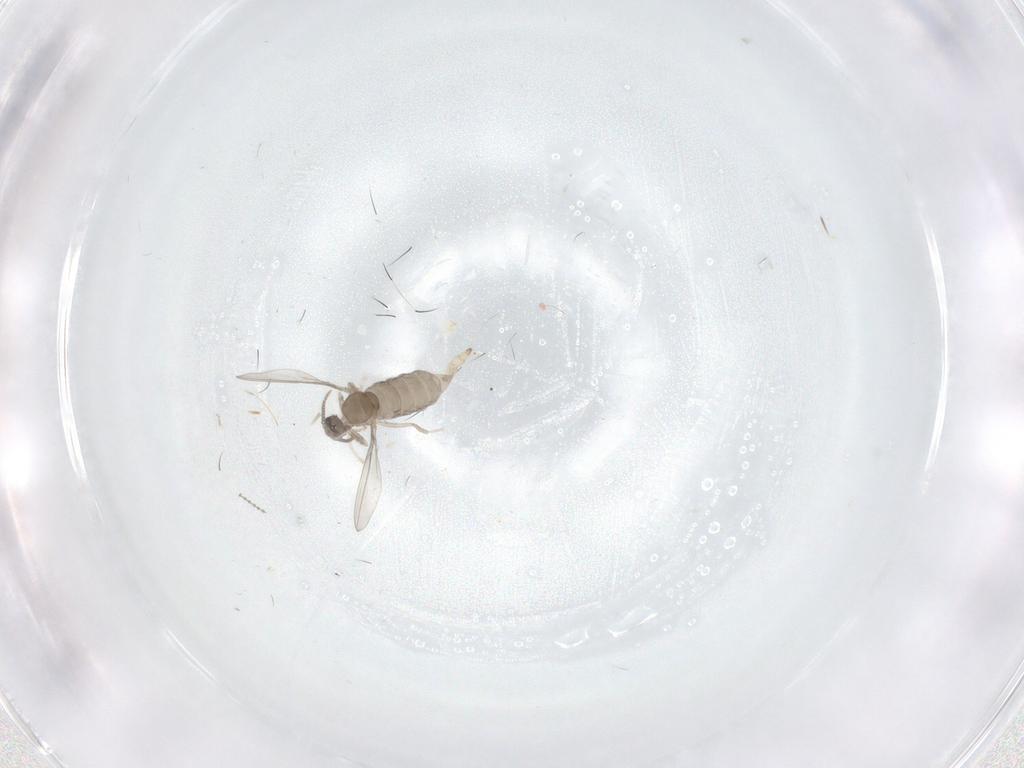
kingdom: Animalia
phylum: Arthropoda
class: Insecta
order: Diptera
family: Cecidomyiidae
